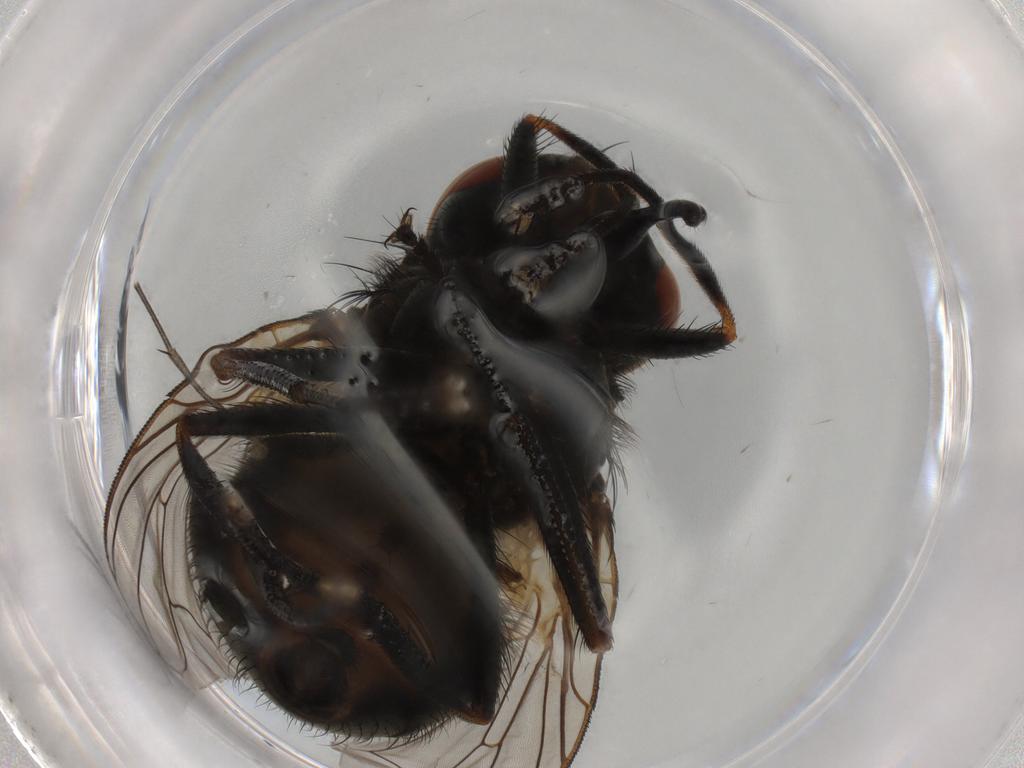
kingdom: Animalia
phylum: Arthropoda
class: Insecta
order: Diptera
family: Muscidae
